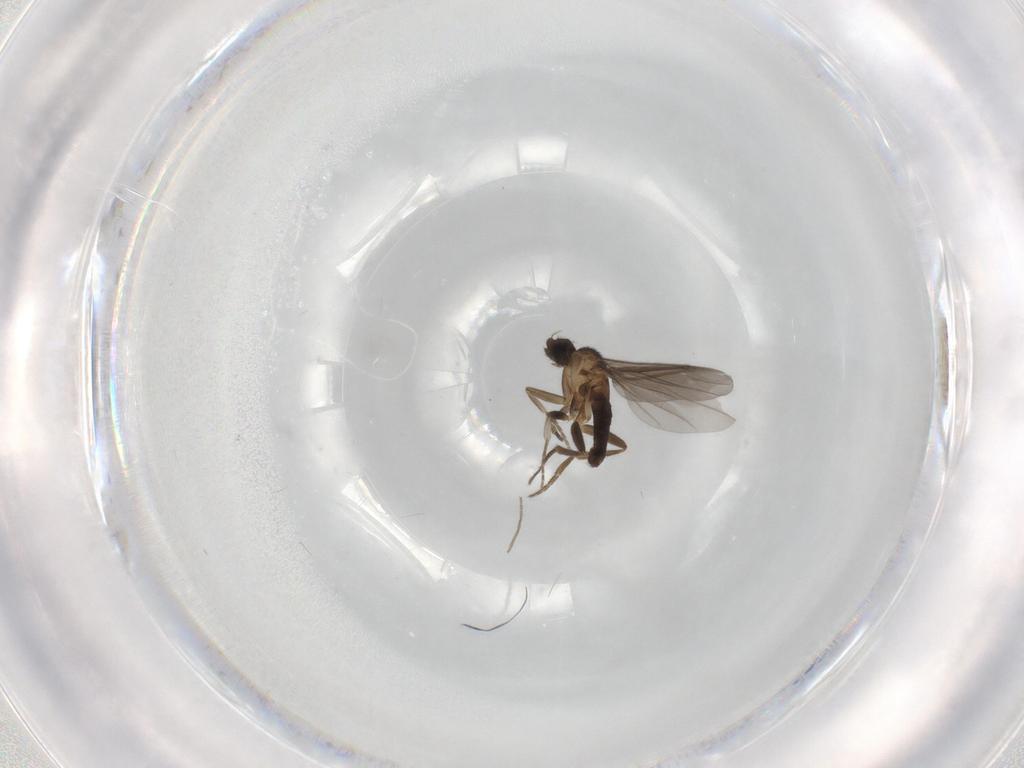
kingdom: Animalia
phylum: Arthropoda
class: Insecta
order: Diptera
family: Phoridae
